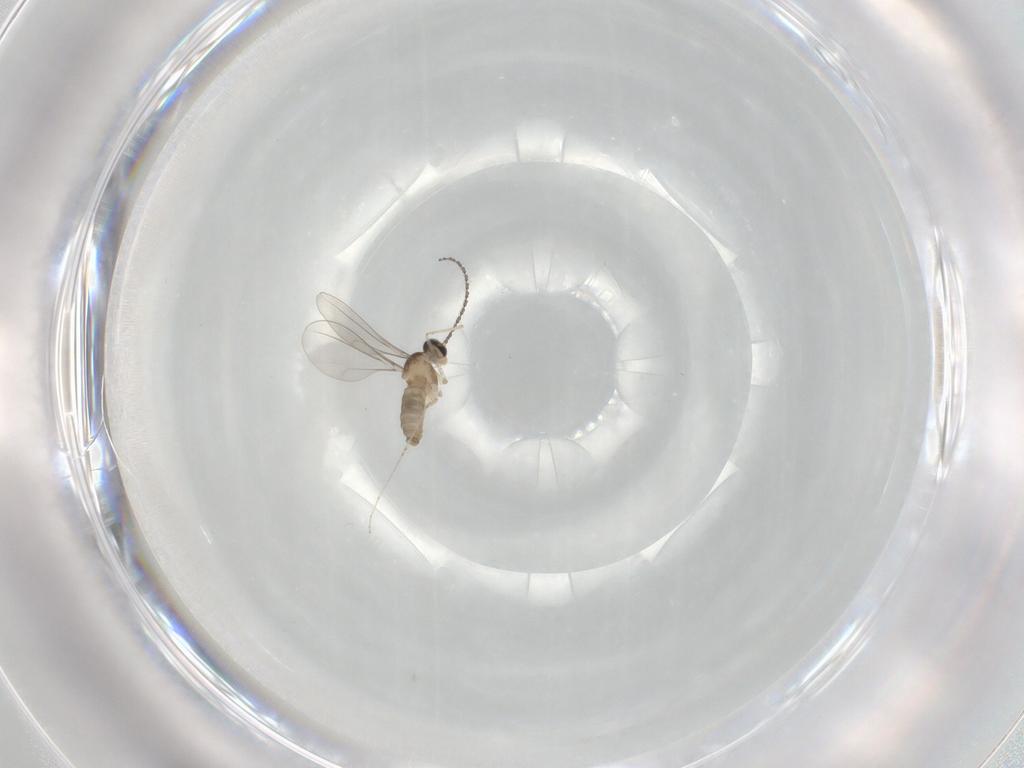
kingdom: Animalia
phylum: Arthropoda
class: Insecta
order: Diptera
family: Cecidomyiidae
